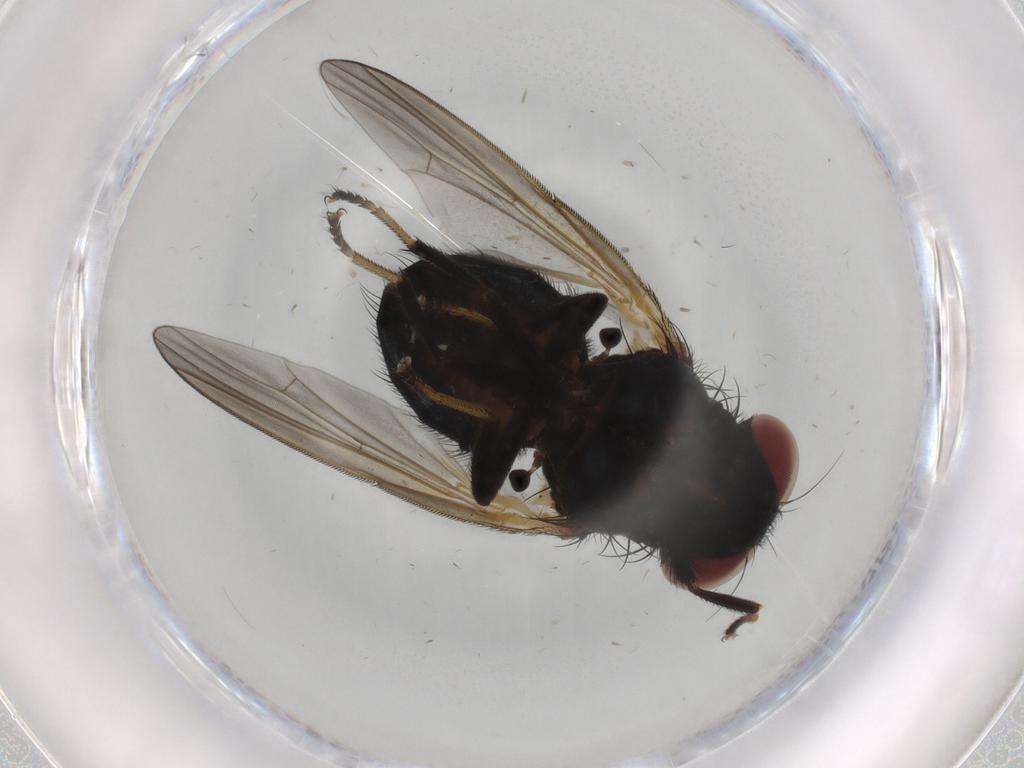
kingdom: Animalia
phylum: Arthropoda
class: Insecta
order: Diptera
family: Lonchaeidae
